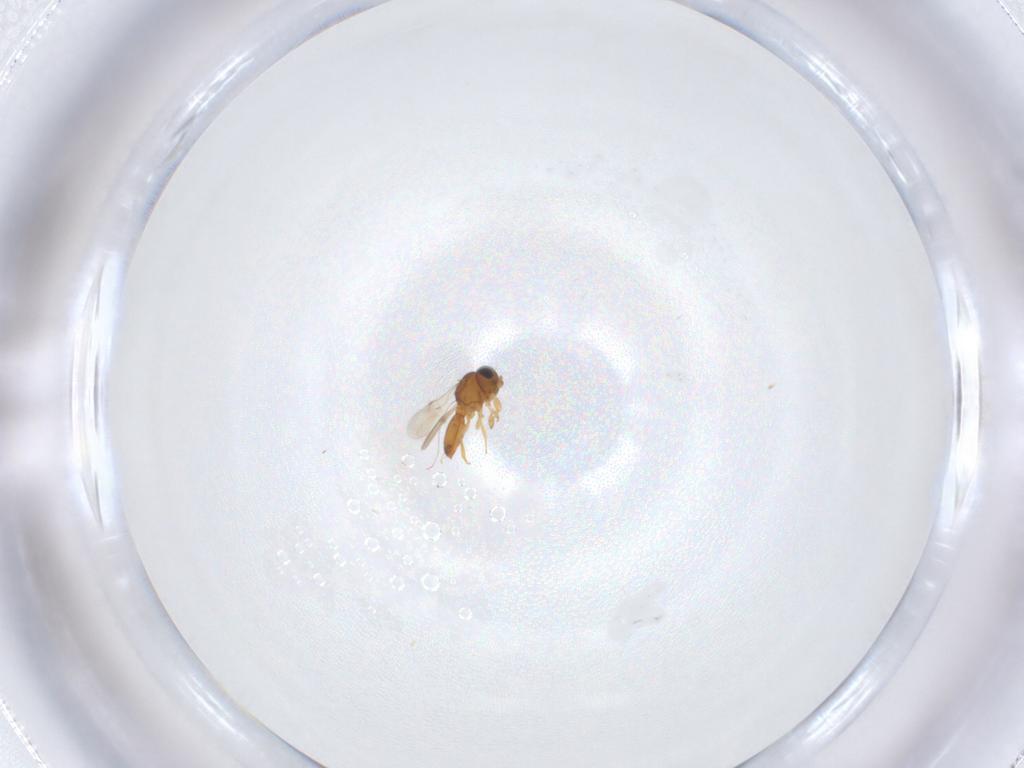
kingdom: Animalia
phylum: Arthropoda
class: Insecta
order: Hymenoptera
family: Scelionidae
